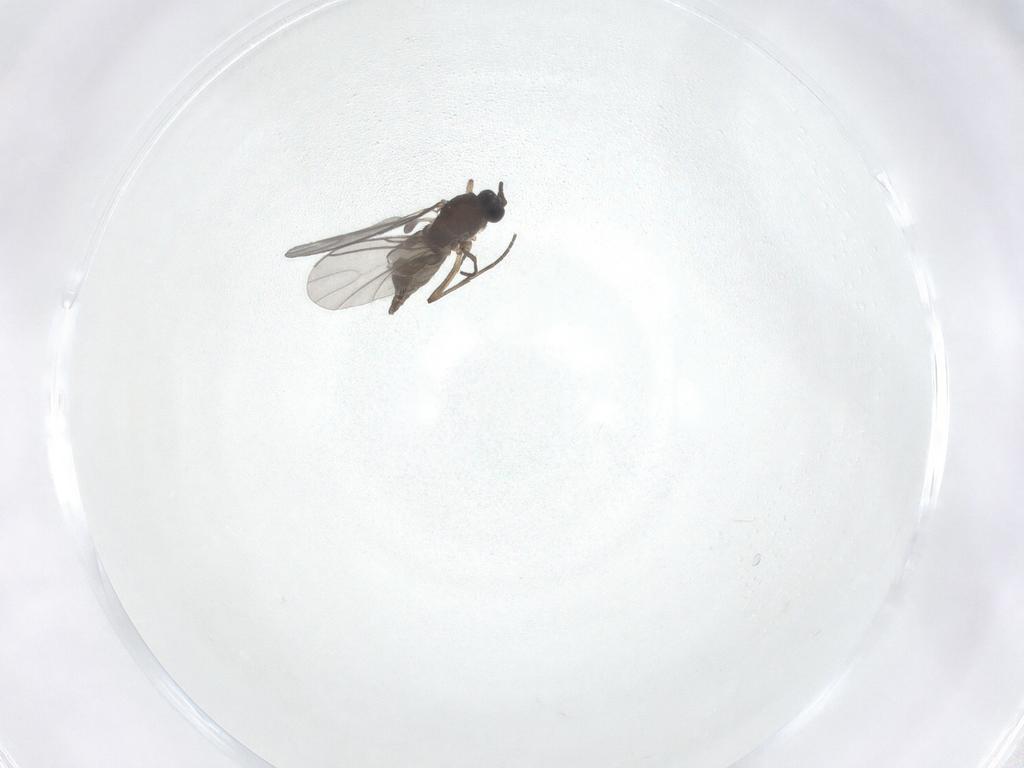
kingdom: Animalia
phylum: Arthropoda
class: Insecta
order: Diptera
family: Sciaridae
